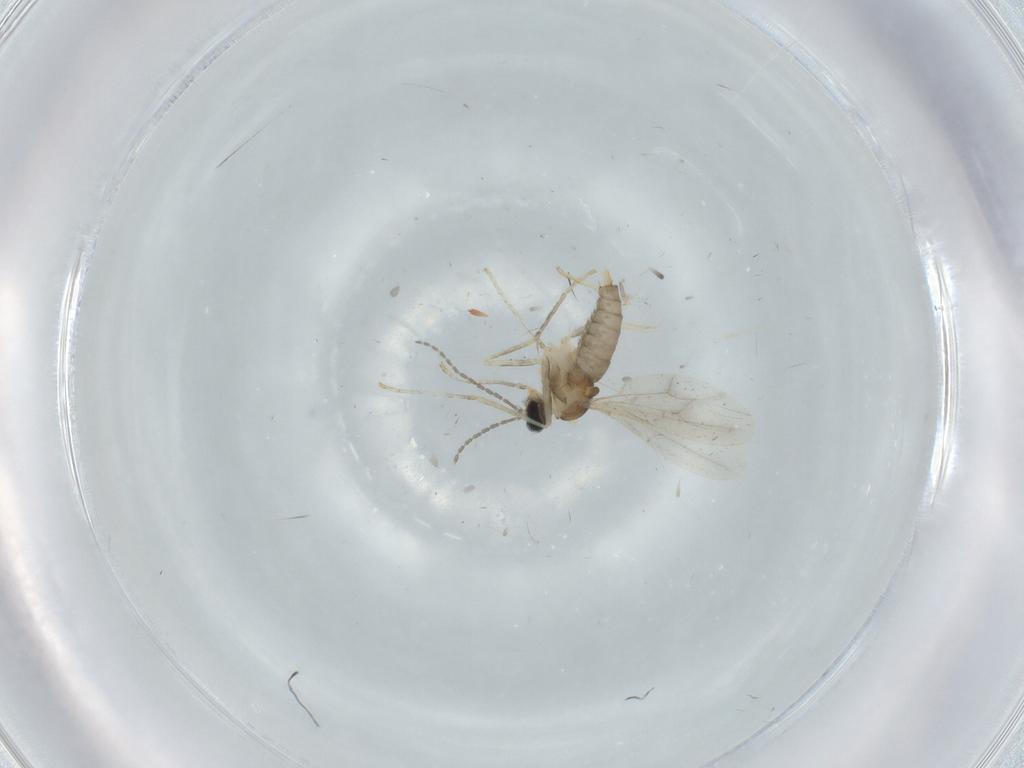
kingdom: Animalia
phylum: Arthropoda
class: Insecta
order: Diptera
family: Cecidomyiidae
